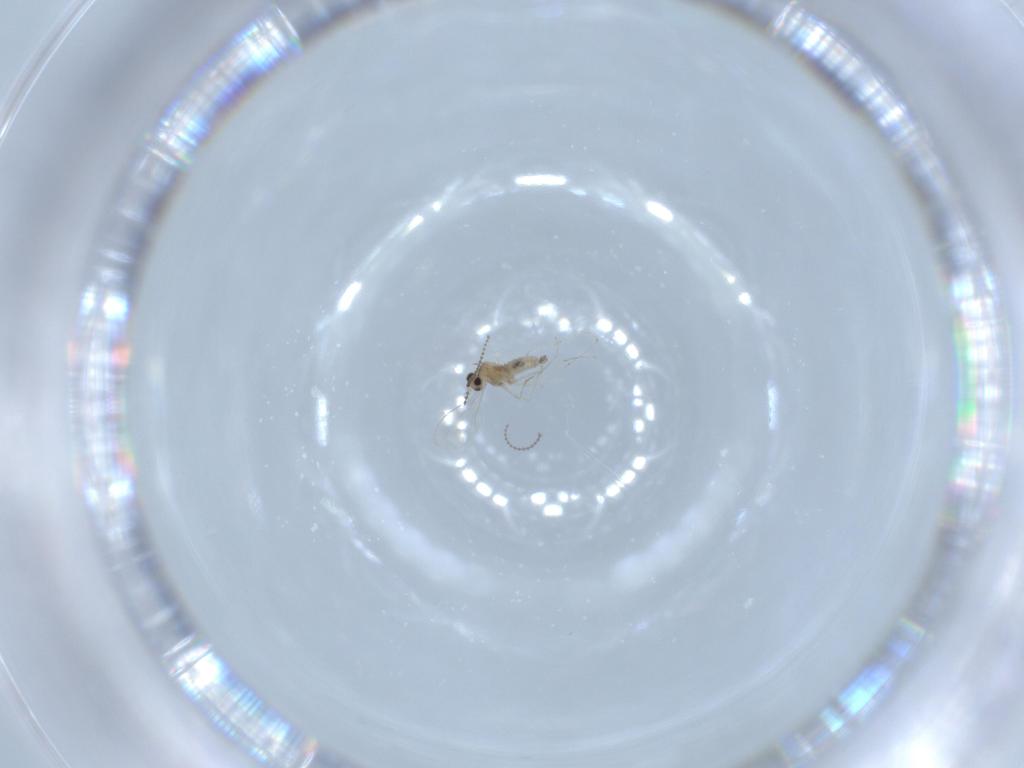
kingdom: Animalia
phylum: Arthropoda
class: Insecta
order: Diptera
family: Cecidomyiidae
